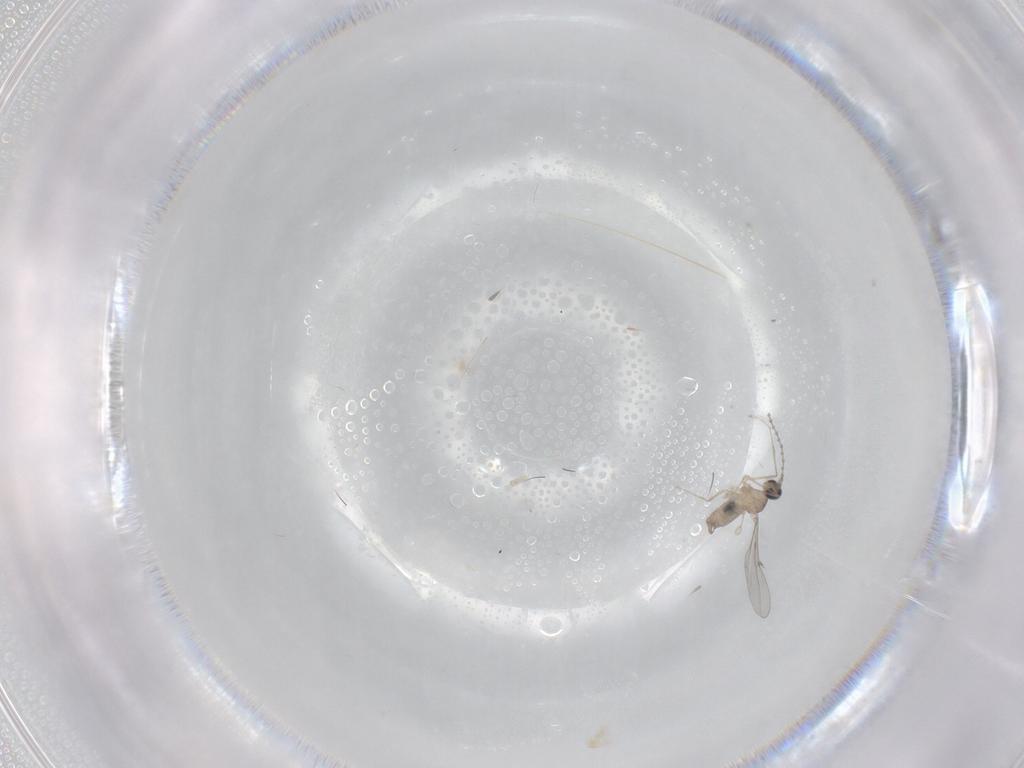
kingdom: Animalia
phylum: Arthropoda
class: Insecta
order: Diptera
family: Cecidomyiidae
